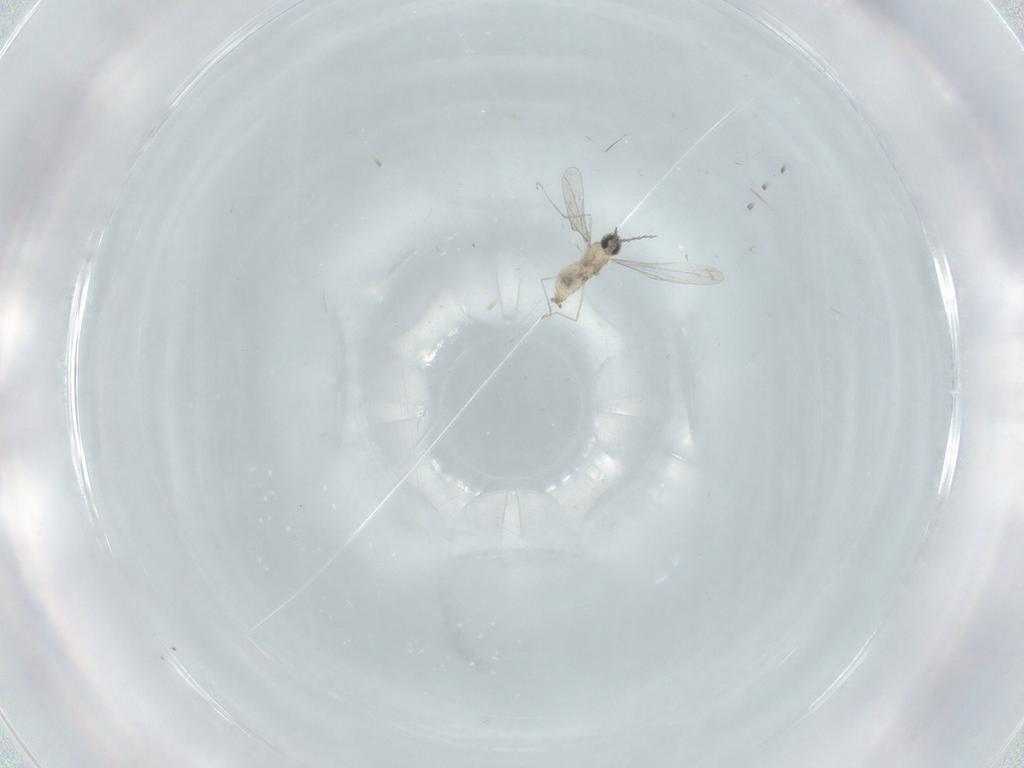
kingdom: Animalia
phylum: Arthropoda
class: Insecta
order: Diptera
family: Cecidomyiidae
